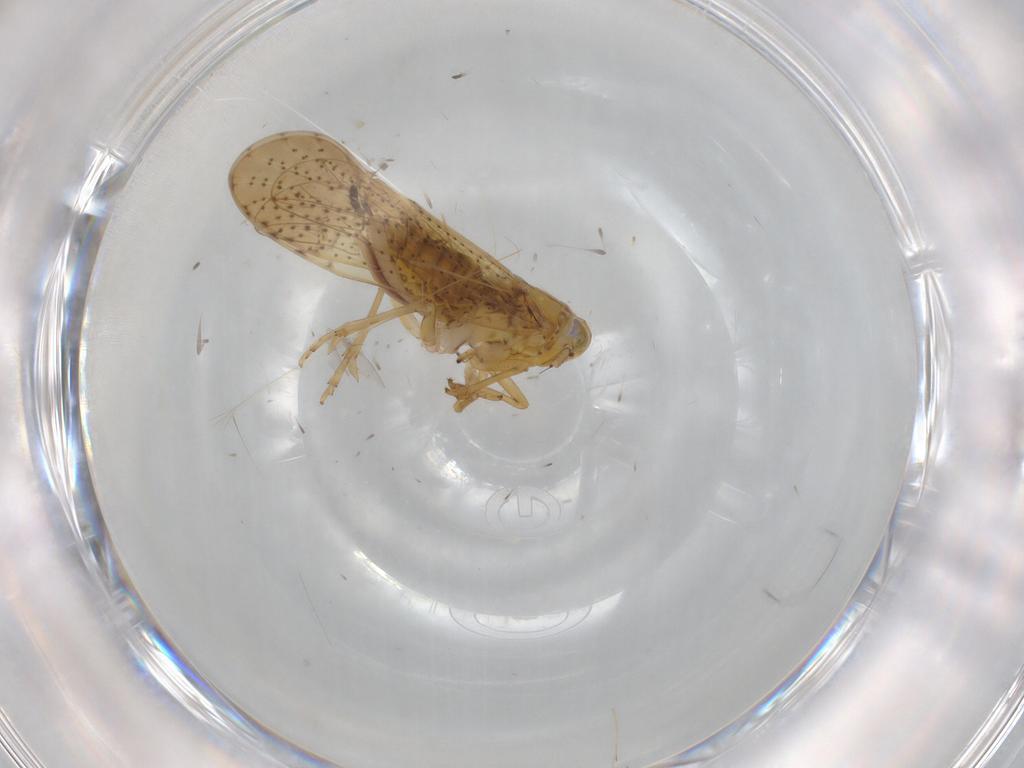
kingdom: Animalia
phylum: Arthropoda
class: Insecta
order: Hemiptera
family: Delphacidae
